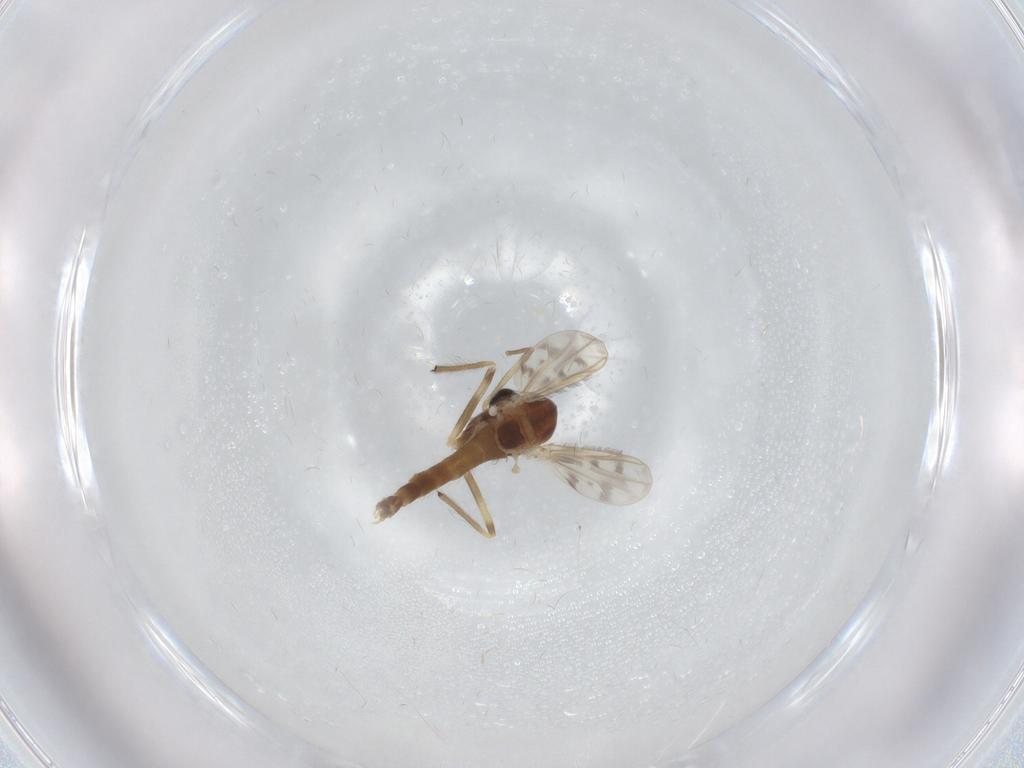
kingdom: Animalia
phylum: Arthropoda
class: Insecta
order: Diptera
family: Chironomidae
